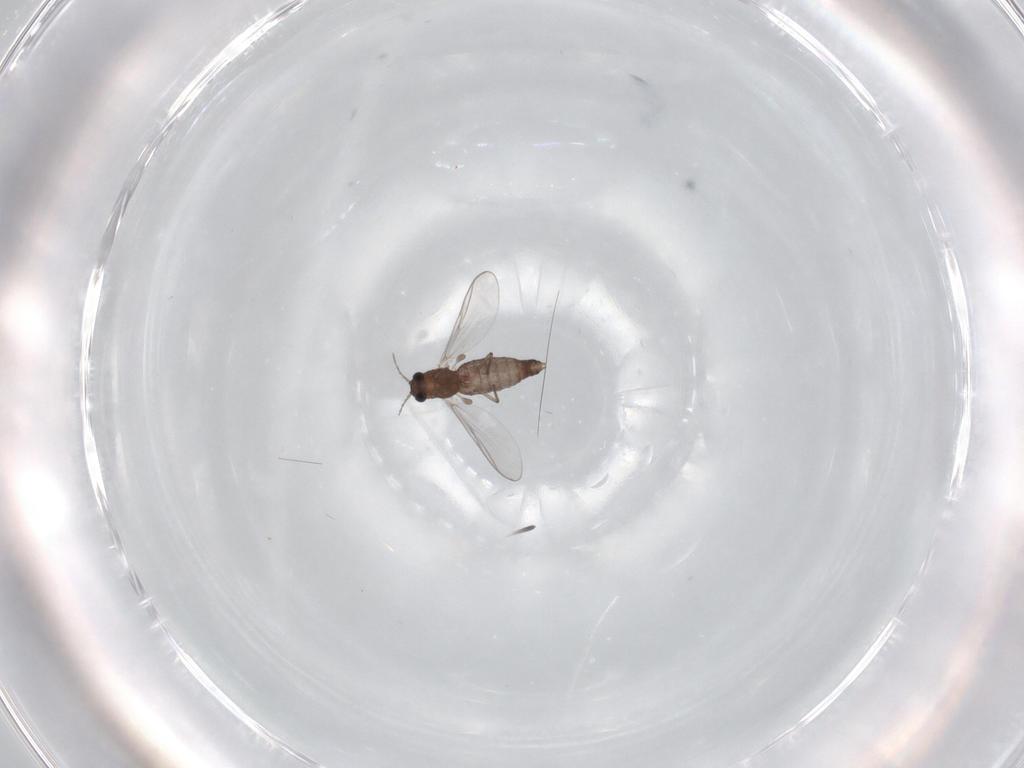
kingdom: Animalia
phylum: Arthropoda
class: Insecta
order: Diptera
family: Chironomidae
